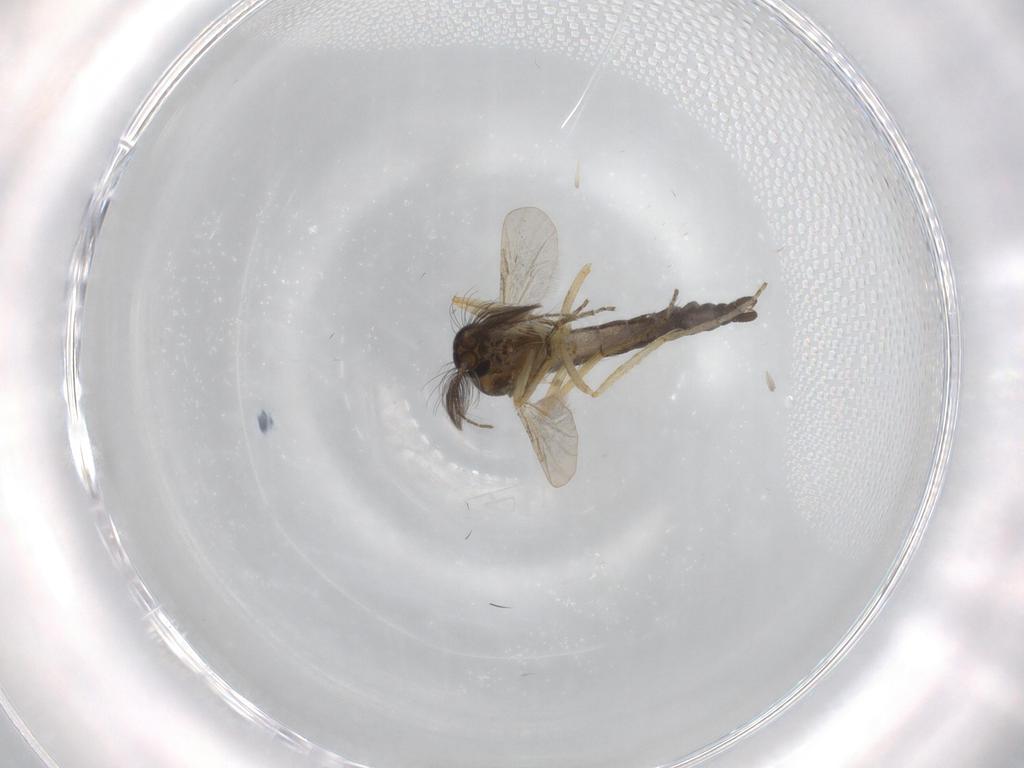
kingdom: Animalia
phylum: Arthropoda
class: Insecta
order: Diptera
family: Ceratopogonidae
